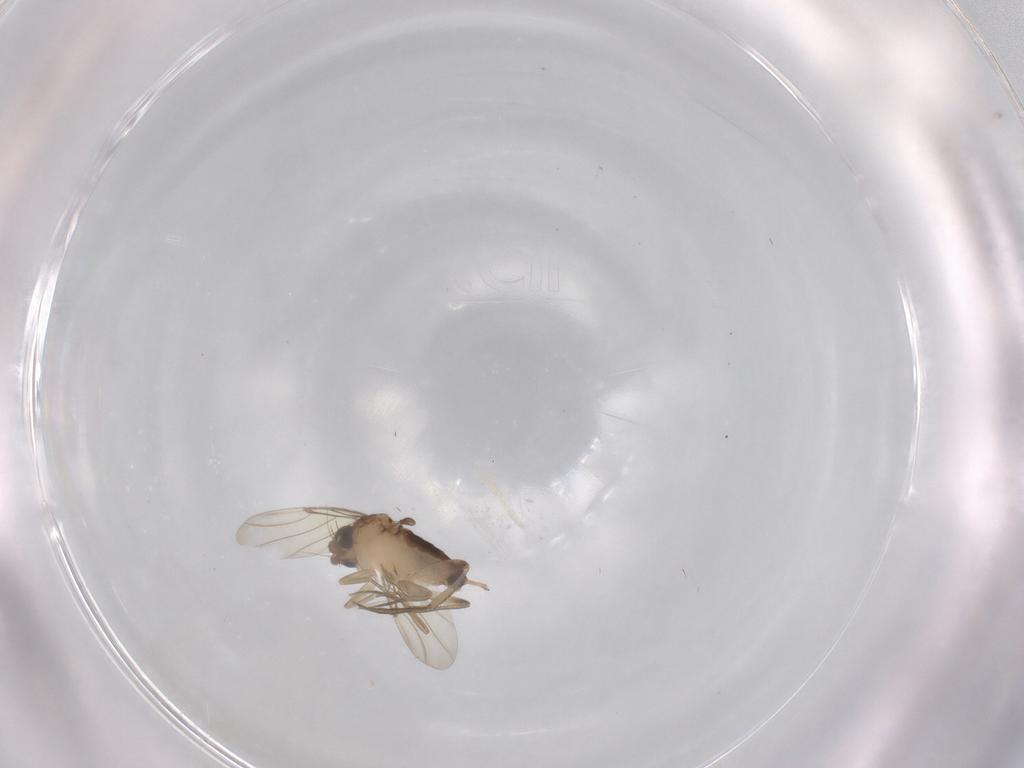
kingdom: Animalia
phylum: Arthropoda
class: Insecta
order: Diptera
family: Phoridae
